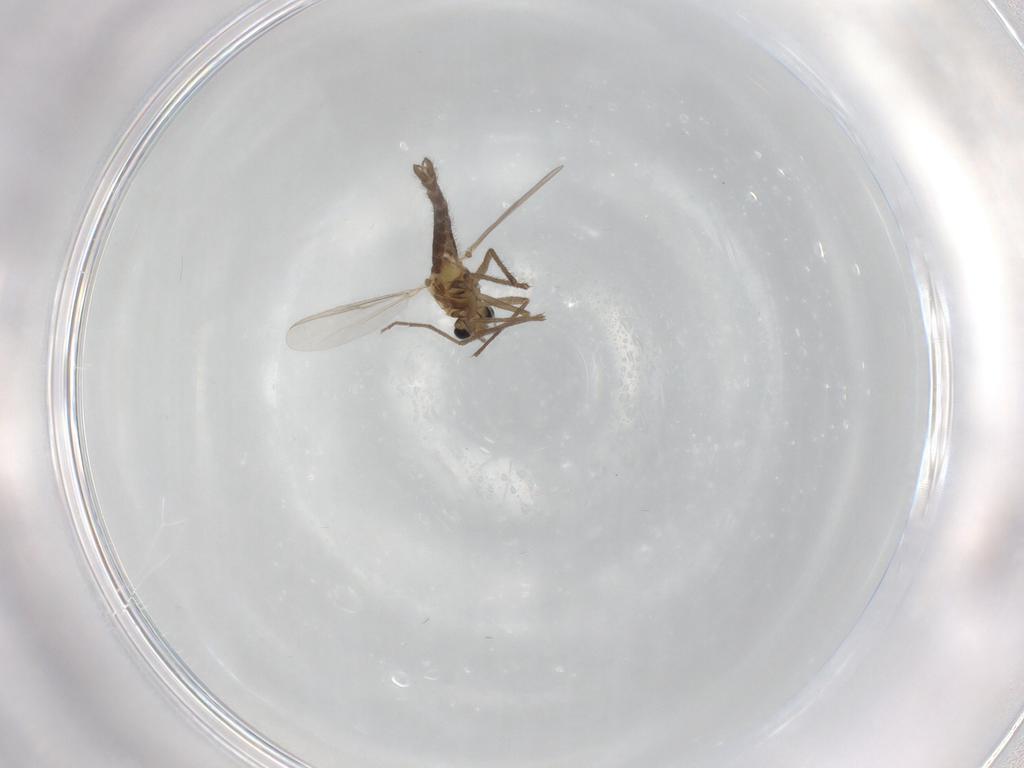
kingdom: Animalia
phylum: Arthropoda
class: Insecta
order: Diptera
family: Chironomidae
